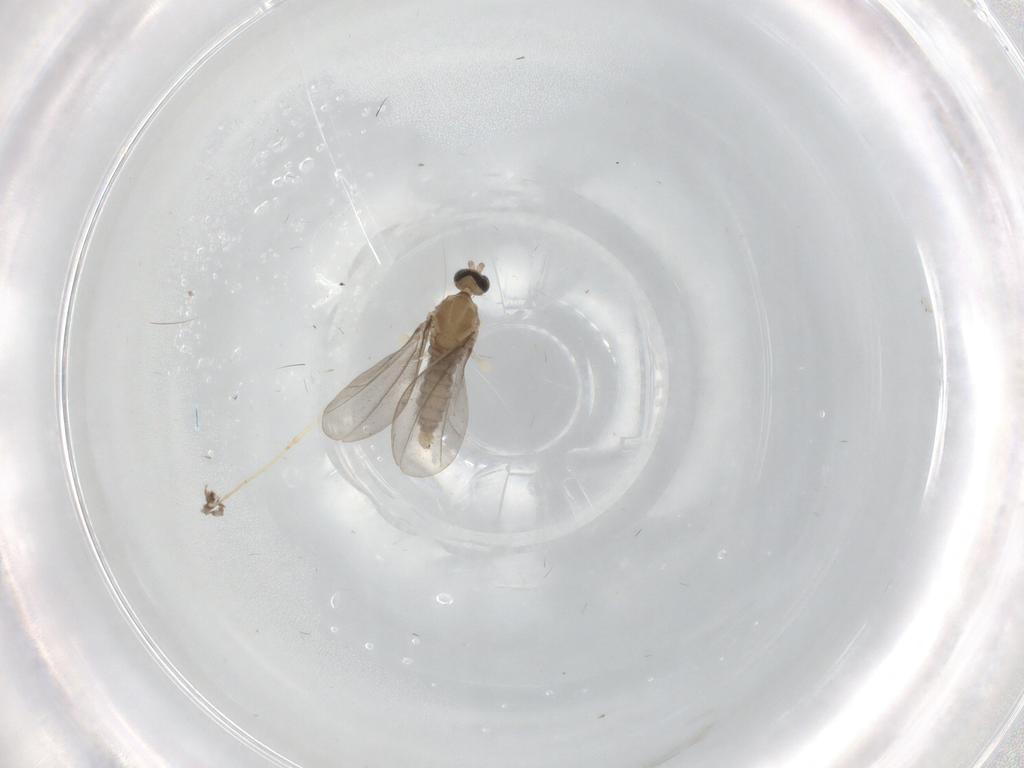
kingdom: Animalia
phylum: Arthropoda
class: Insecta
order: Diptera
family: Cecidomyiidae
